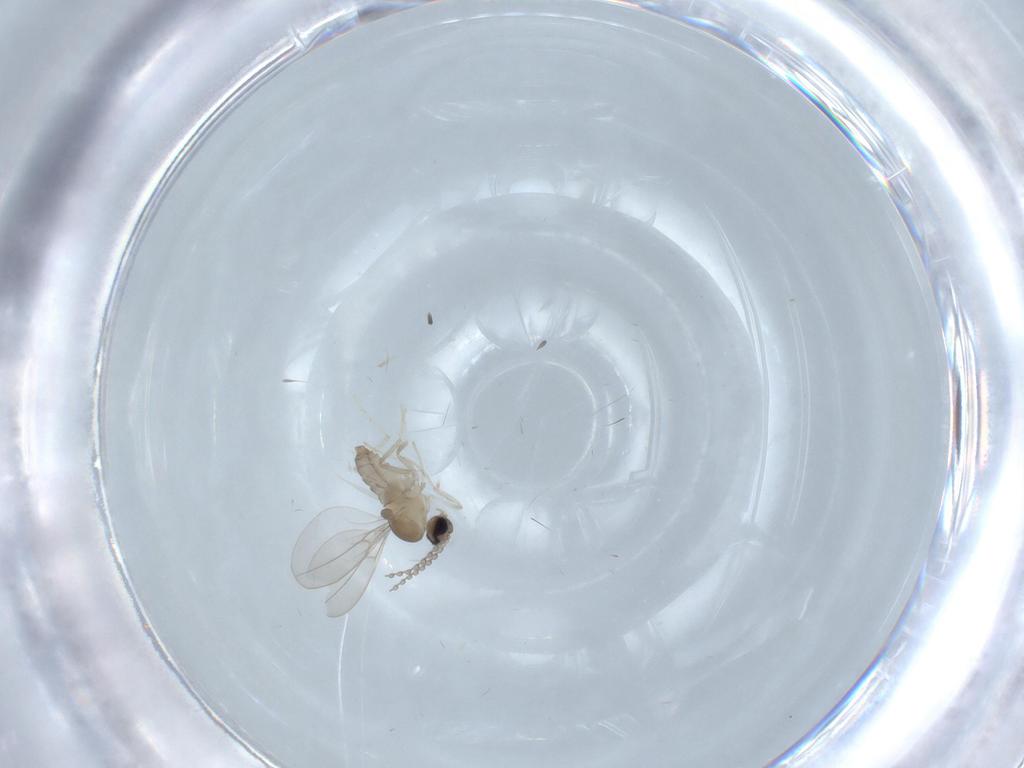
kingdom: Animalia
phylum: Arthropoda
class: Insecta
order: Diptera
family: Cecidomyiidae
